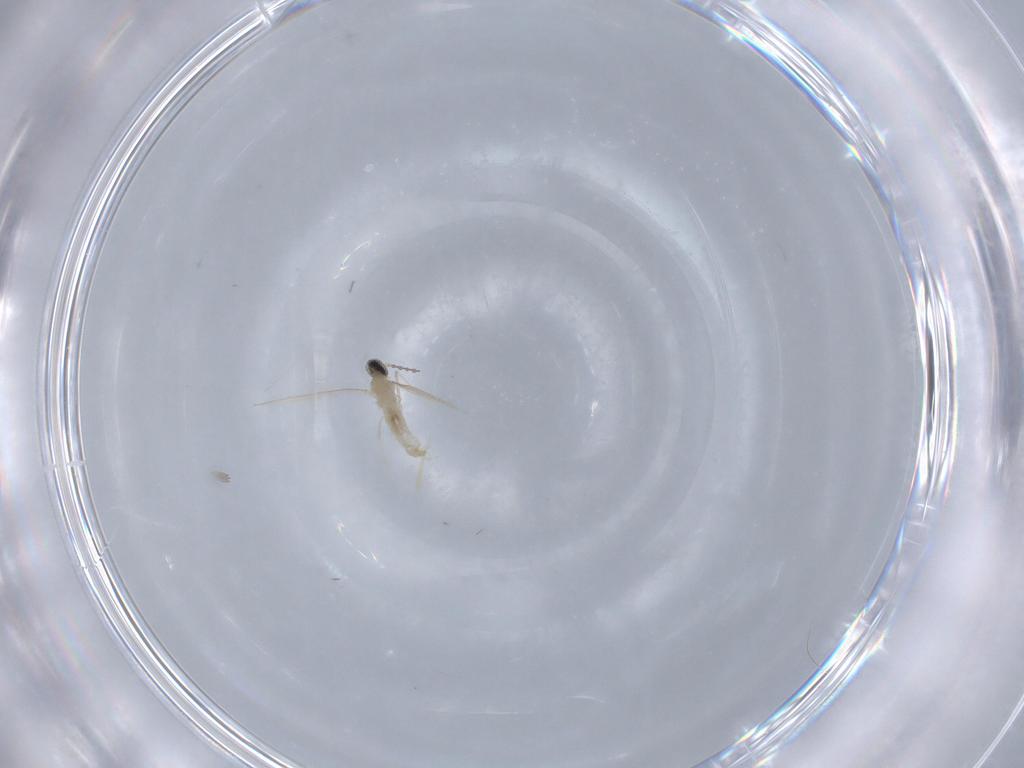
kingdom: Animalia
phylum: Arthropoda
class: Insecta
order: Diptera
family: Cecidomyiidae
